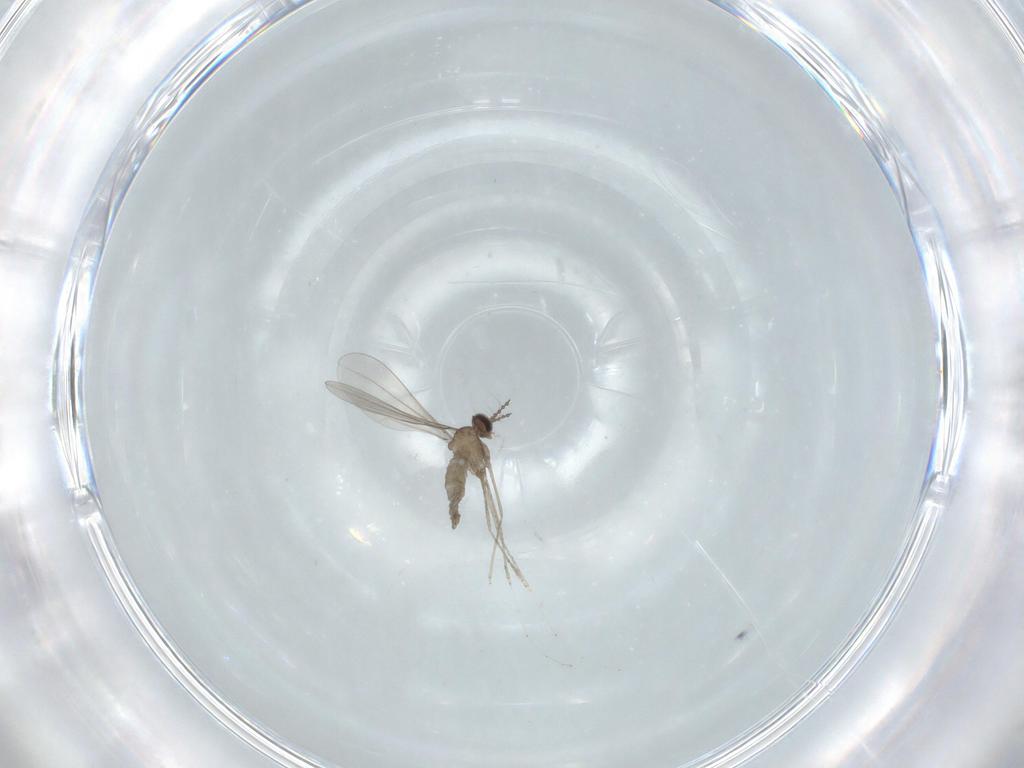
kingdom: Animalia
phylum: Arthropoda
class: Insecta
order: Diptera
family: Cecidomyiidae
